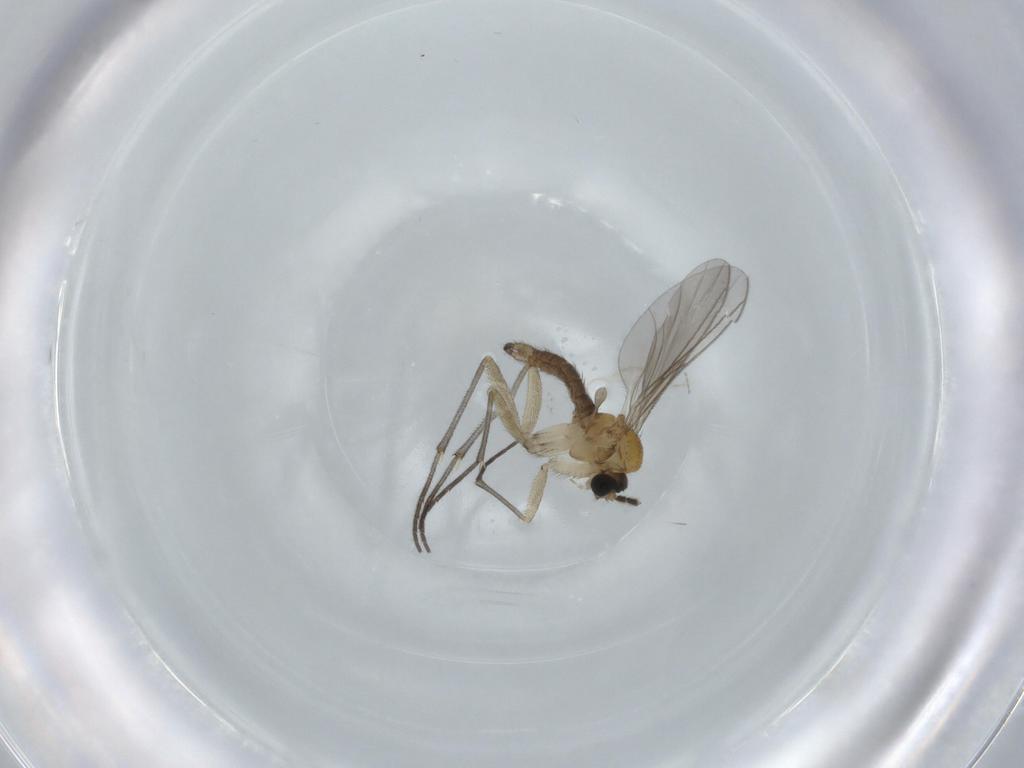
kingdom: Animalia
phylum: Arthropoda
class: Insecta
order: Diptera
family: Sciaridae
